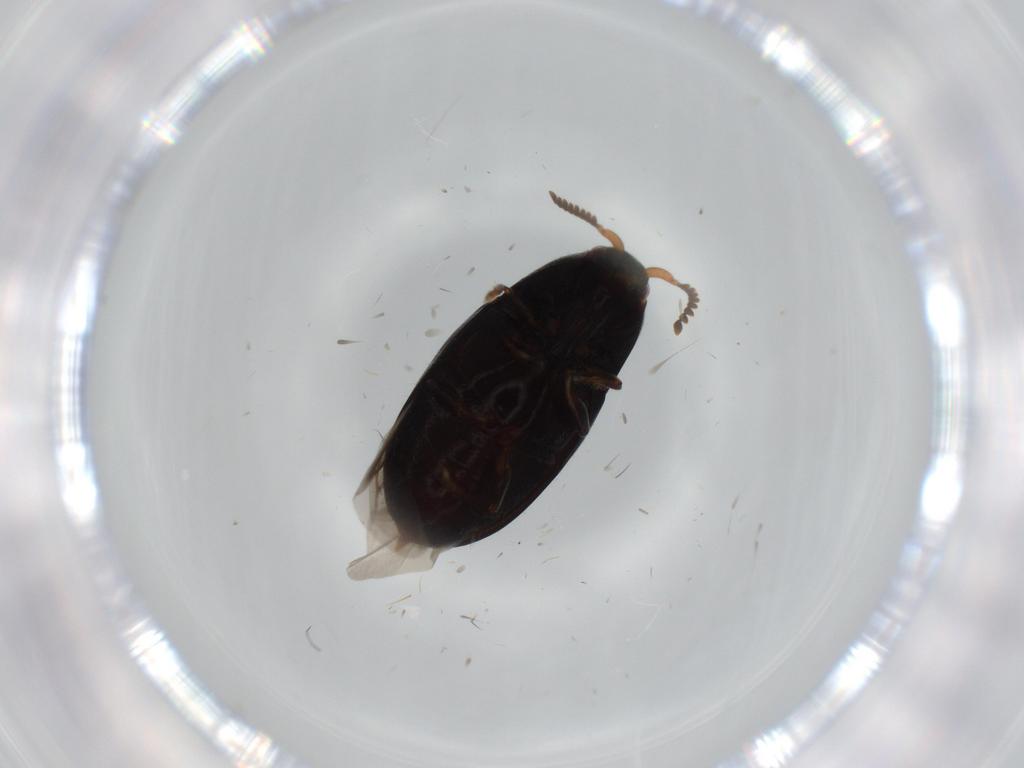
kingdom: Animalia
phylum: Arthropoda
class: Insecta
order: Coleoptera
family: Elateridae
